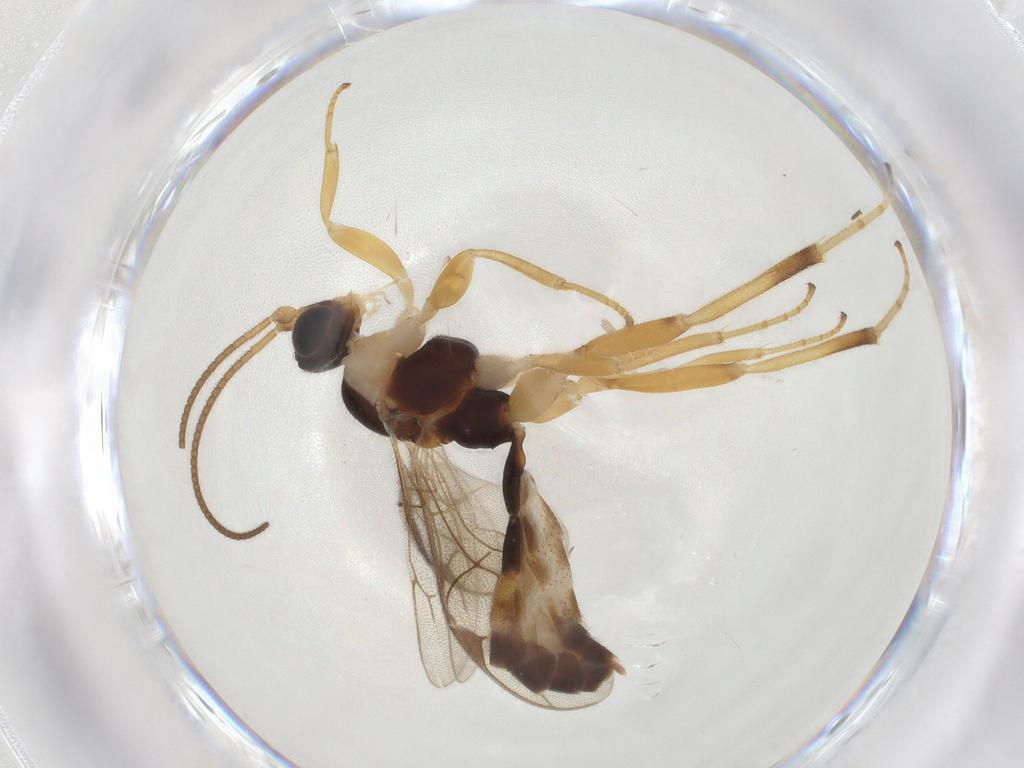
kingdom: Animalia
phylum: Arthropoda
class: Insecta
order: Hymenoptera
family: Ichneumonidae
